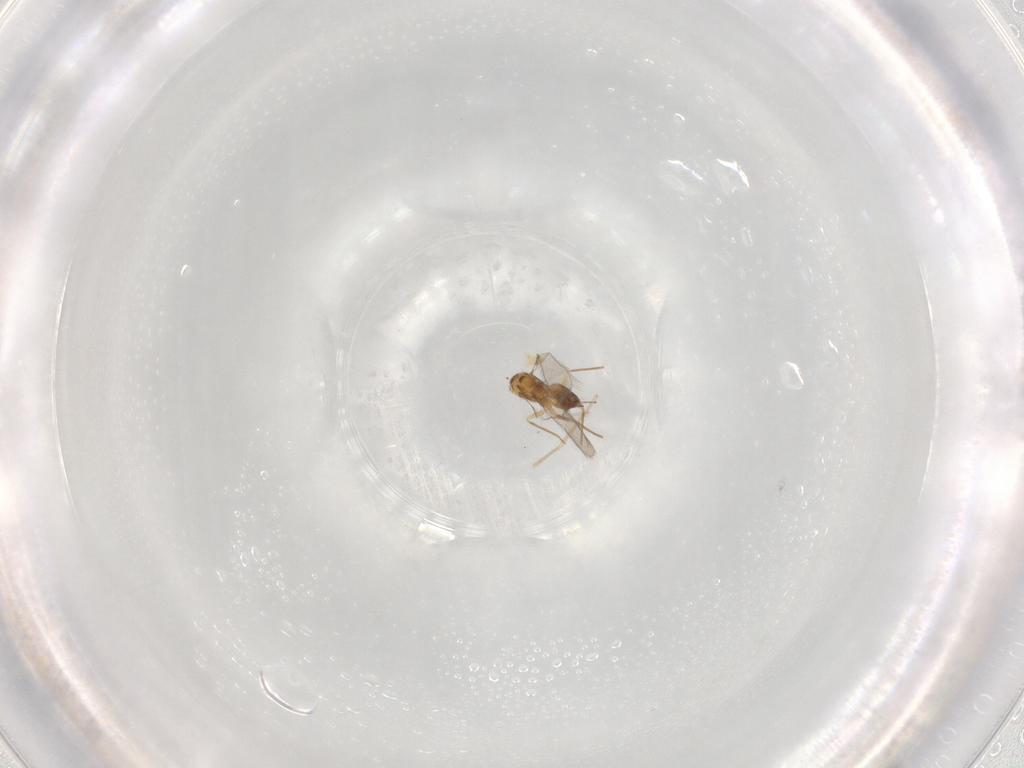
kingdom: Animalia
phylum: Arthropoda
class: Insecta
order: Hymenoptera
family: Mymaridae
